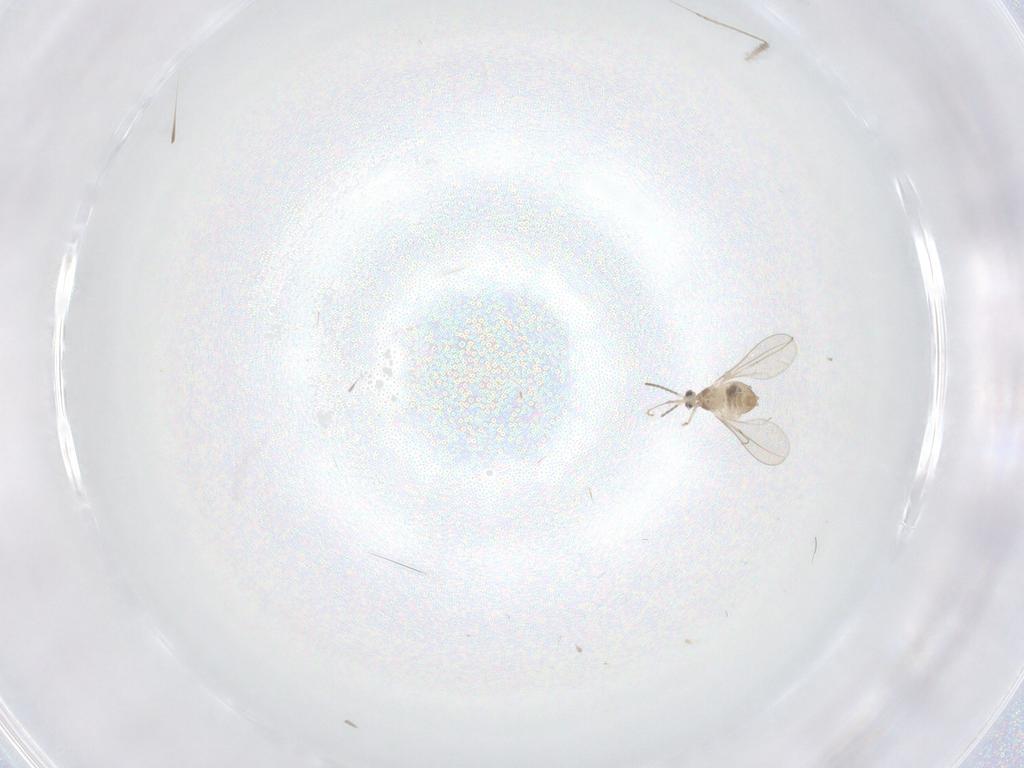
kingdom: Animalia
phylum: Arthropoda
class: Insecta
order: Diptera
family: Cecidomyiidae
